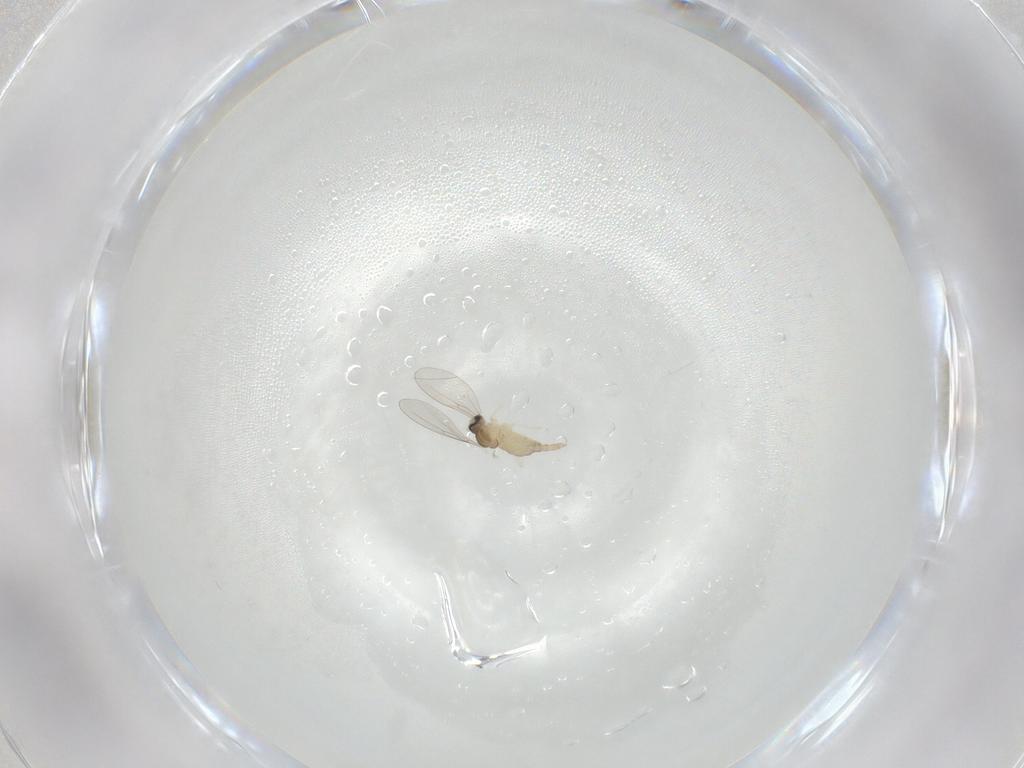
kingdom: Animalia
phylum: Arthropoda
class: Insecta
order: Diptera
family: Cecidomyiidae
